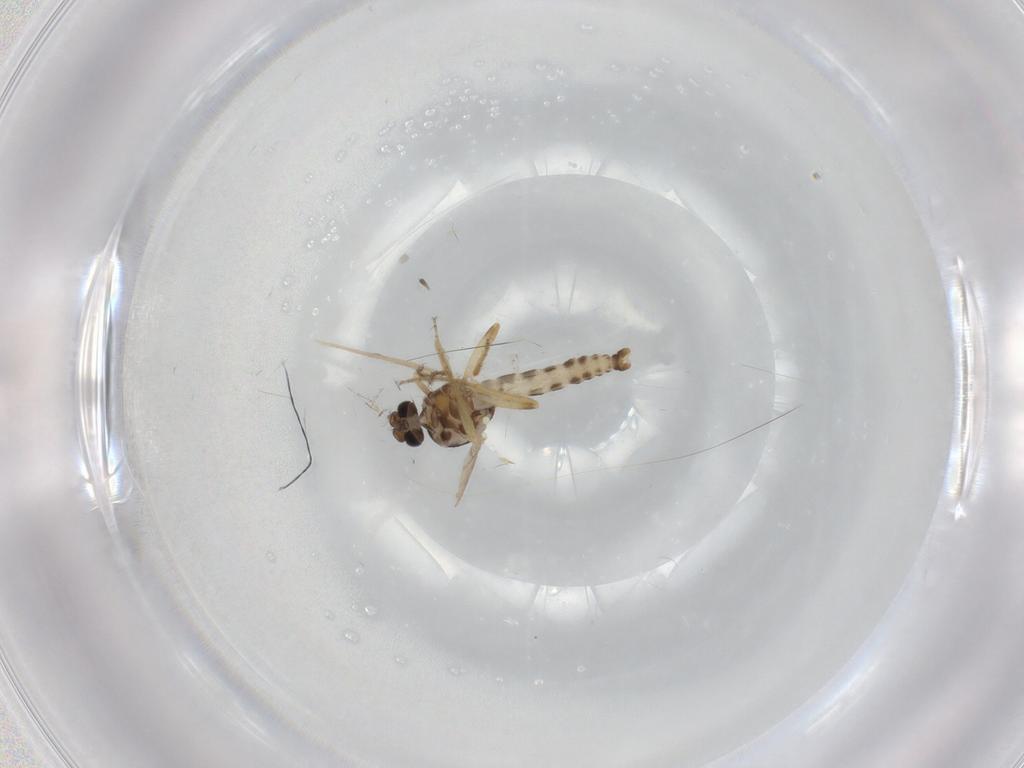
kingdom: Animalia
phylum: Arthropoda
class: Insecta
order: Diptera
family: Ceratopogonidae
